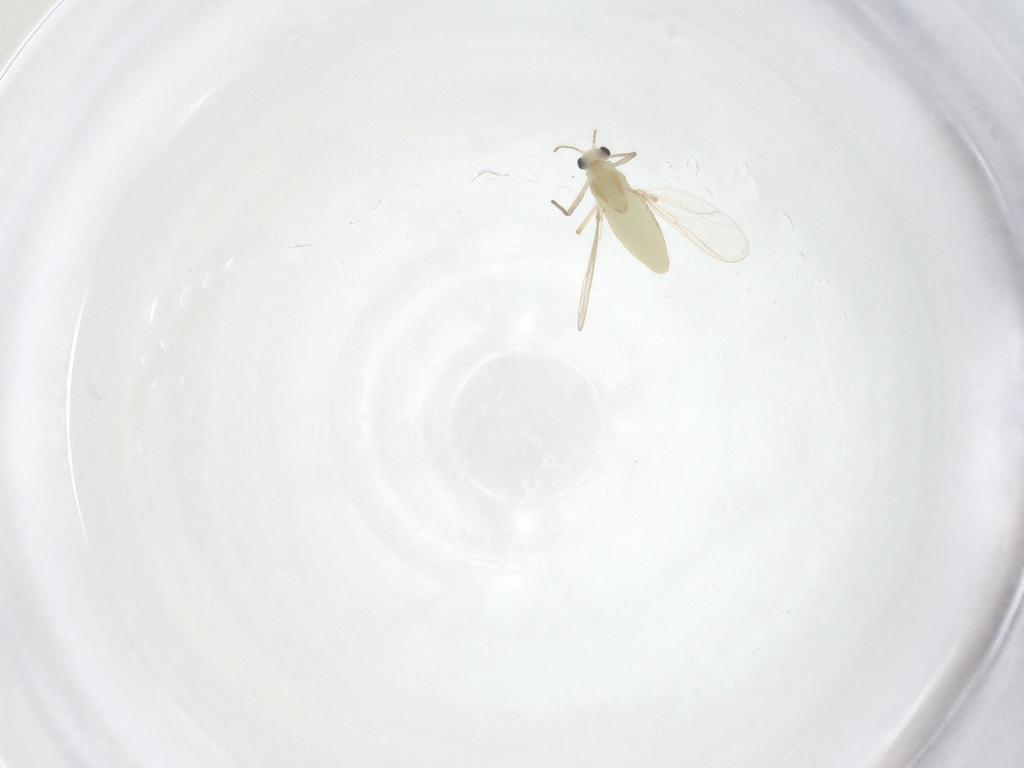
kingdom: Animalia
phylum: Arthropoda
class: Insecta
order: Diptera
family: Chironomidae
